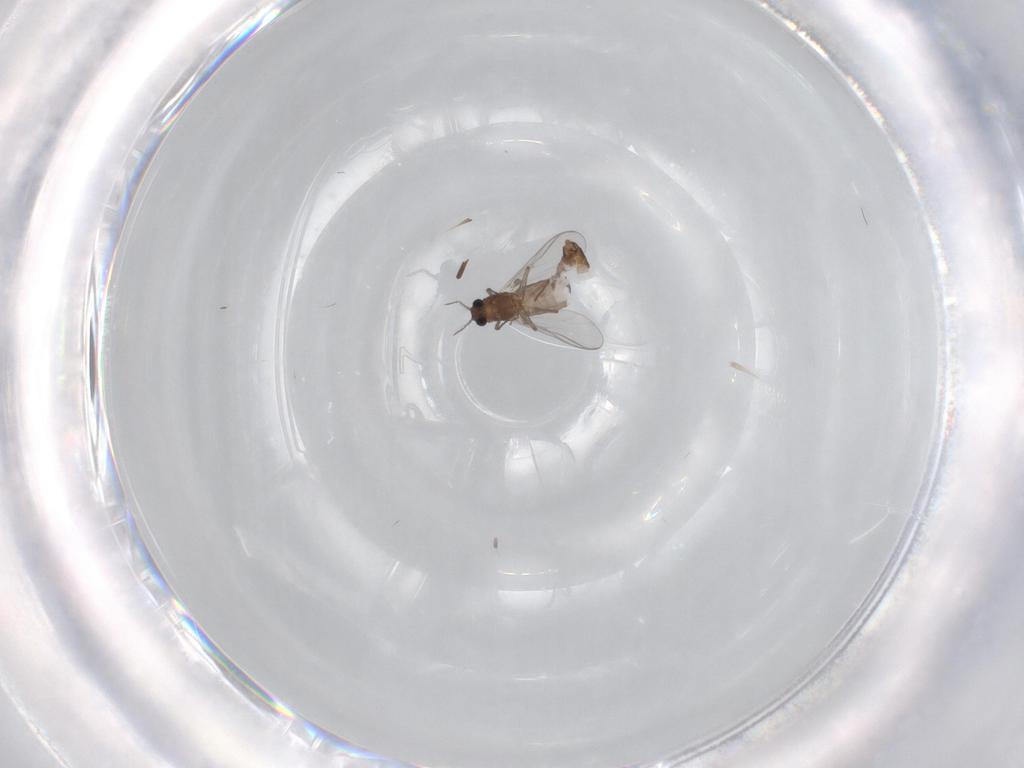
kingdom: Animalia
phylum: Arthropoda
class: Insecta
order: Diptera
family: Chironomidae
